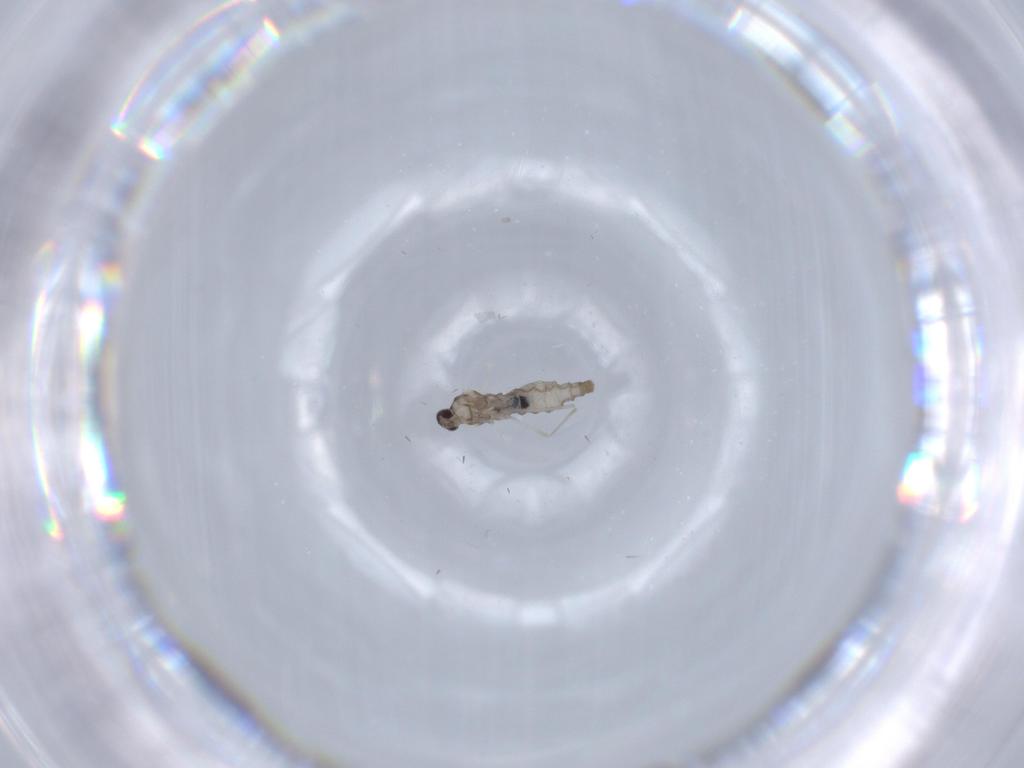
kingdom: Animalia
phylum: Arthropoda
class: Insecta
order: Diptera
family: Cecidomyiidae
